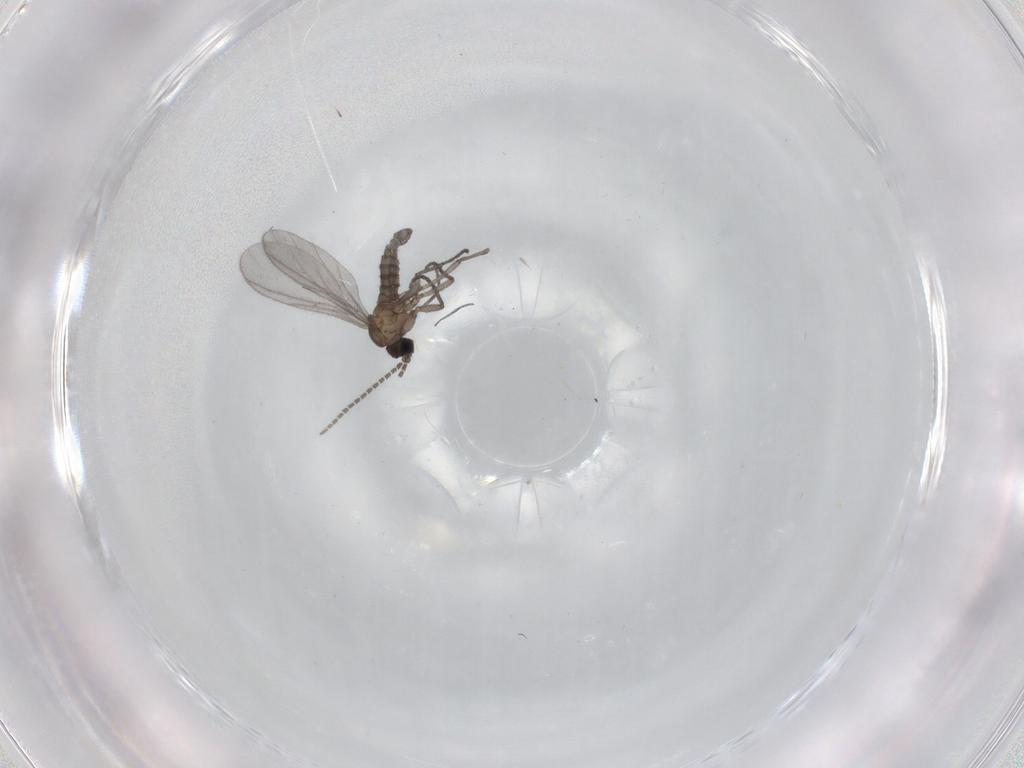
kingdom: Animalia
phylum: Arthropoda
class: Insecta
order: Diptera
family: Sciaridae
